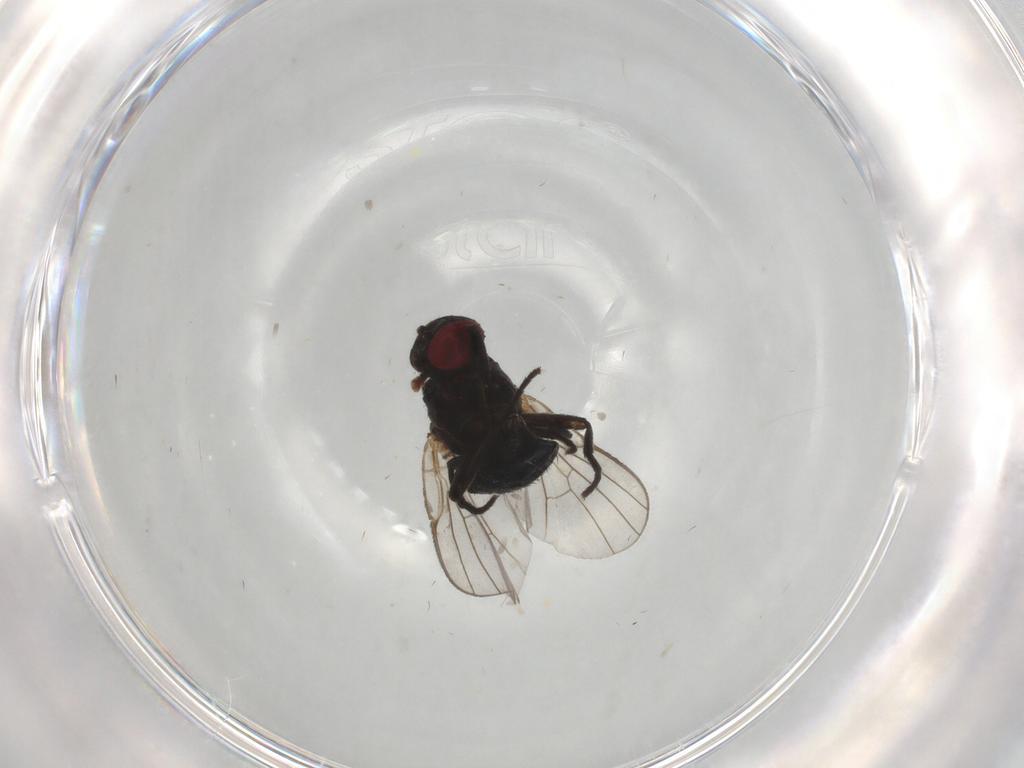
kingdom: Animalia
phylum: Arthropoda
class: Insecta
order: Diptera
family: Agromyzidae
